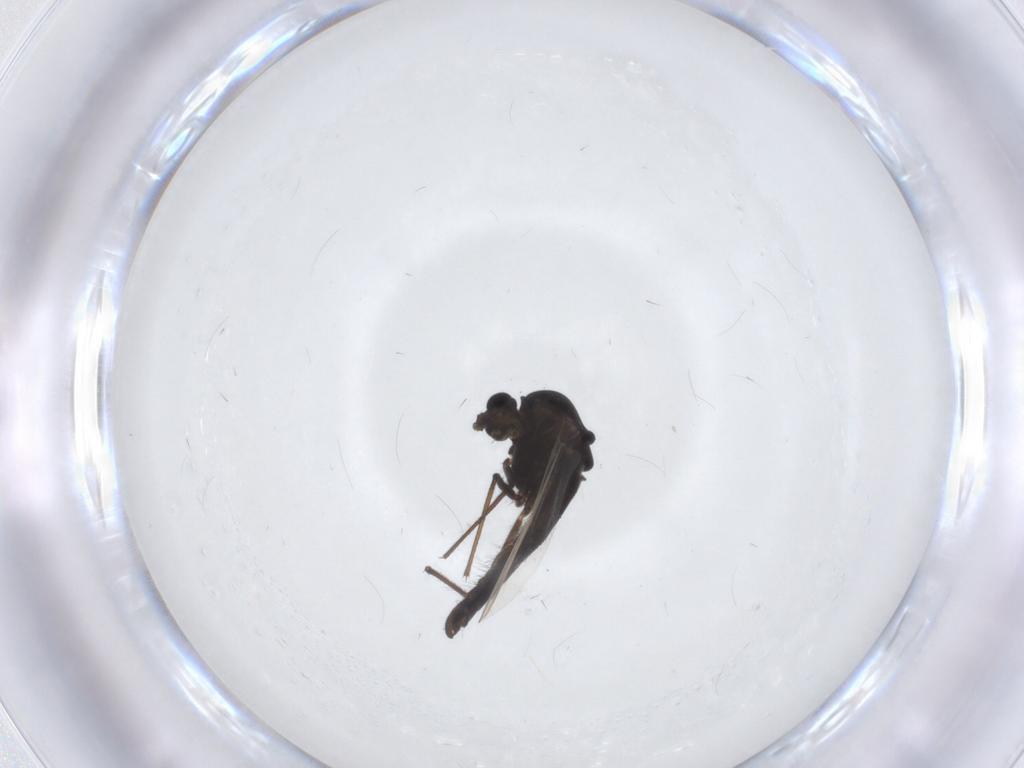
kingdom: Animalia
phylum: Arthropoda
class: Insecta
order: Diptera
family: Chironomidae
